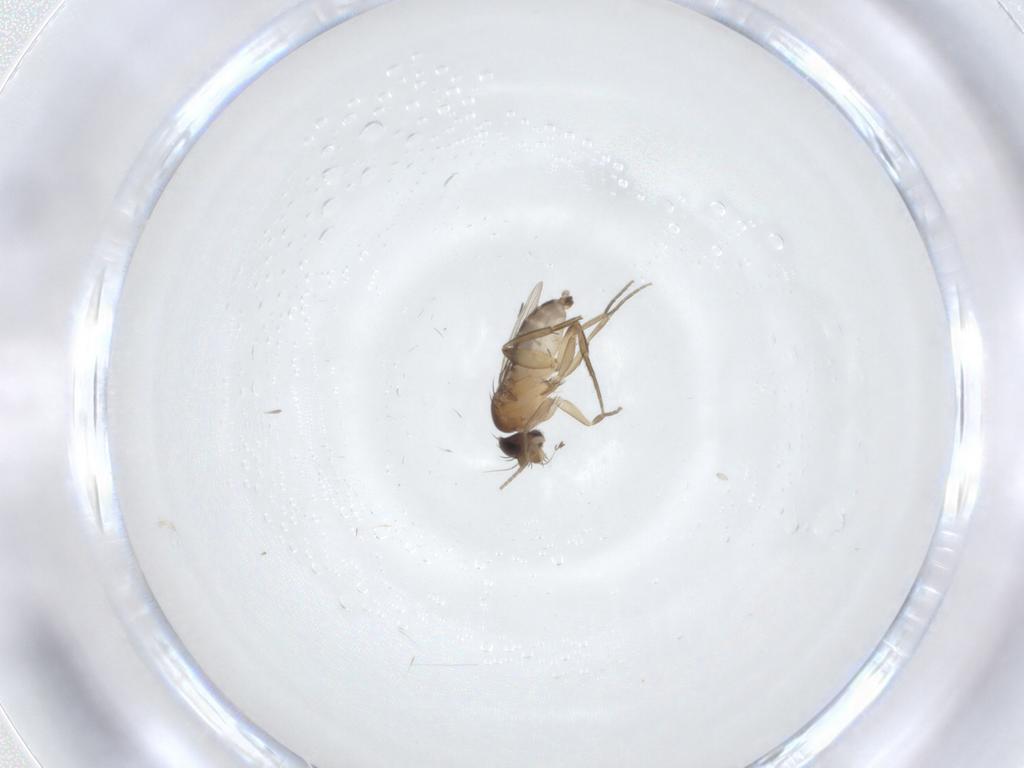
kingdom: Animalia
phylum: Arthropoda
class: Insecta
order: Diptera
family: Phoridae
